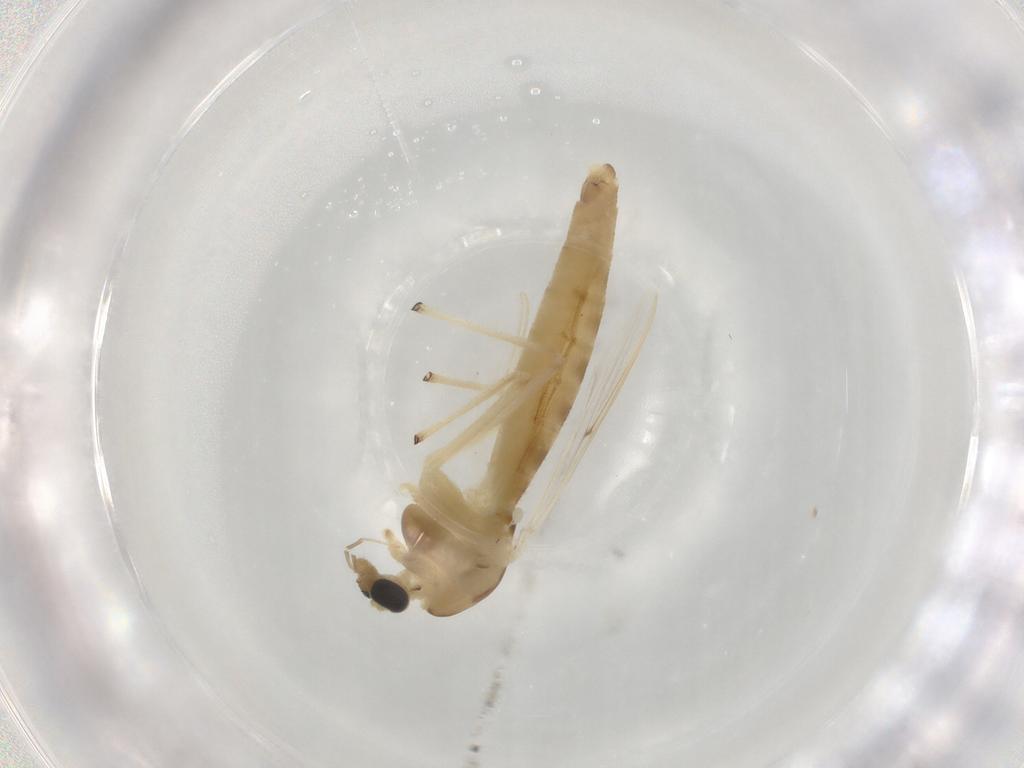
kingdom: Animalia
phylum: Arthropoda
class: Insecta
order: Diptera
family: Chironomidae
